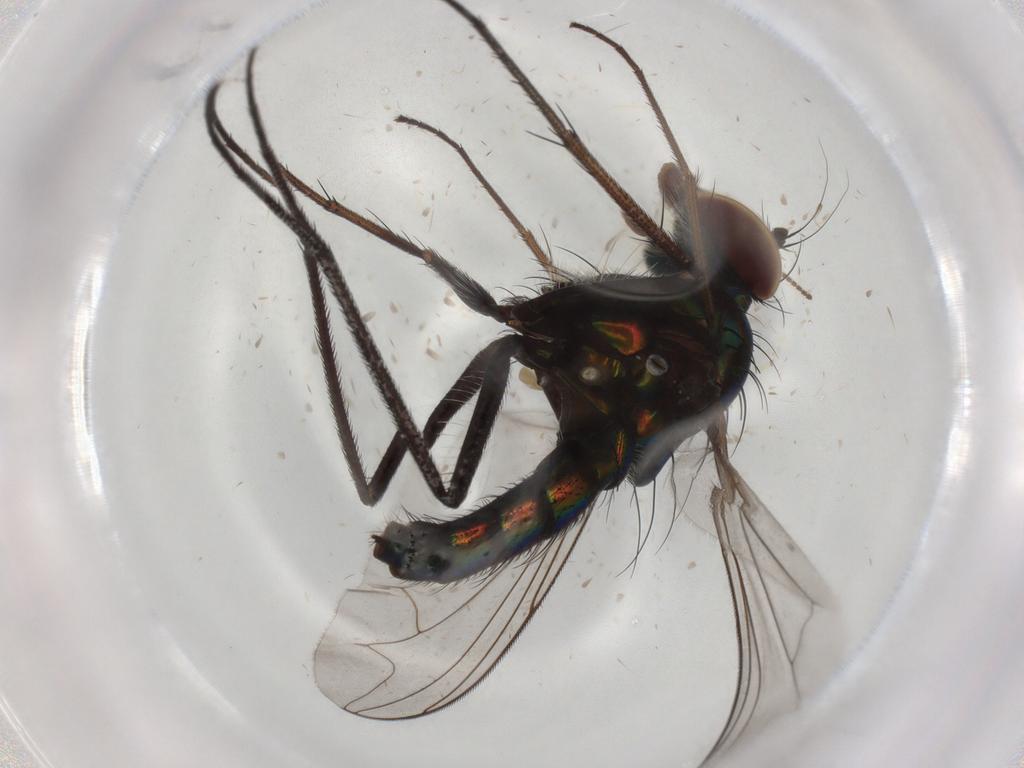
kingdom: Animalia
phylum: Arthropoda
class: Insecta
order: Diptera
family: Dolichopodidae
